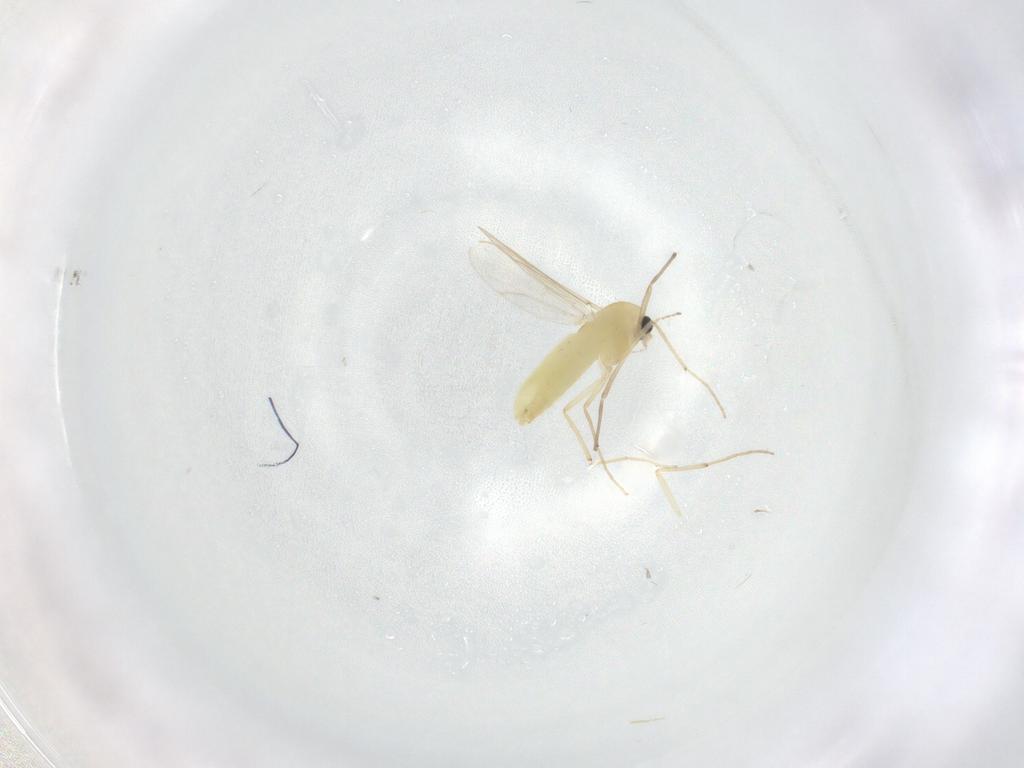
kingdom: Animalia
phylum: Arthropoda
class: Insecta
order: Diptera
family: Chironomidae
